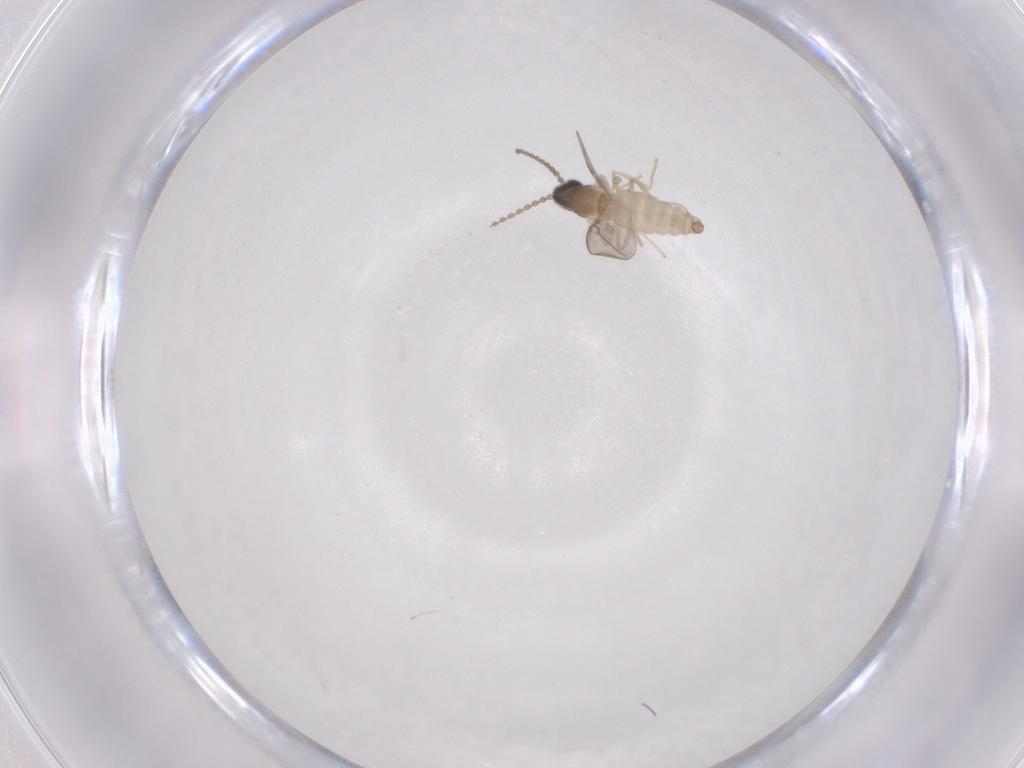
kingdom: Animalia
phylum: Arthropoda
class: Insecta
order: Diptera
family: Cecidomyiidae
